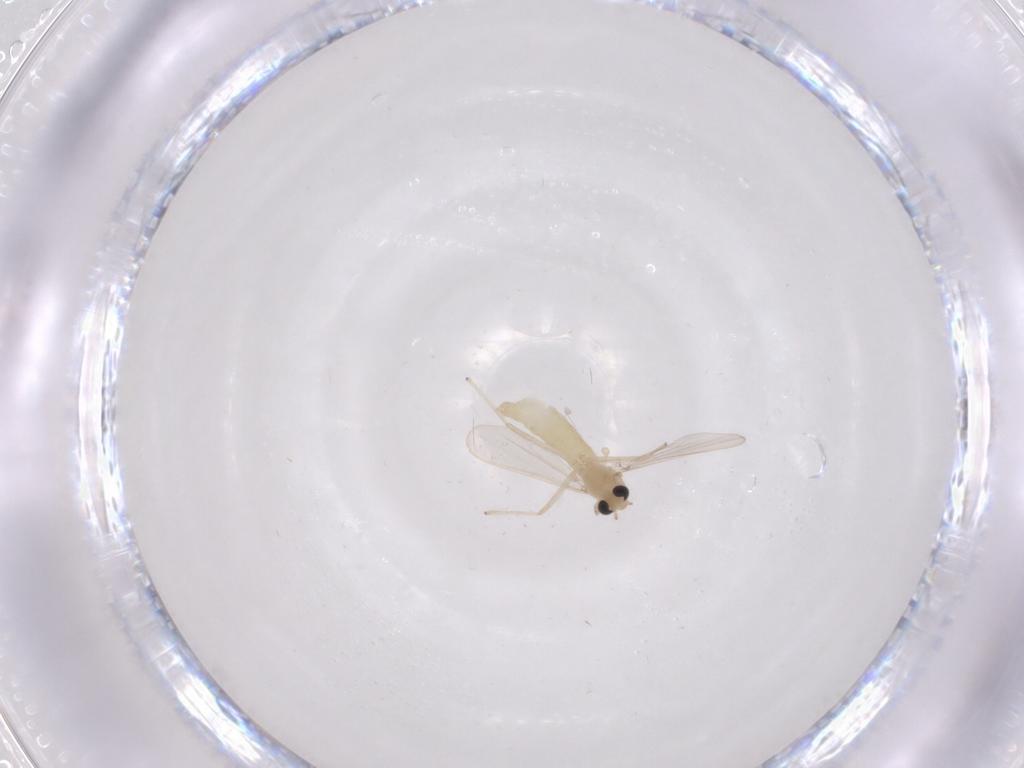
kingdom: Animalia
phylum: Arthropoda
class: Insecta
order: Diptera
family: Chironomidae
